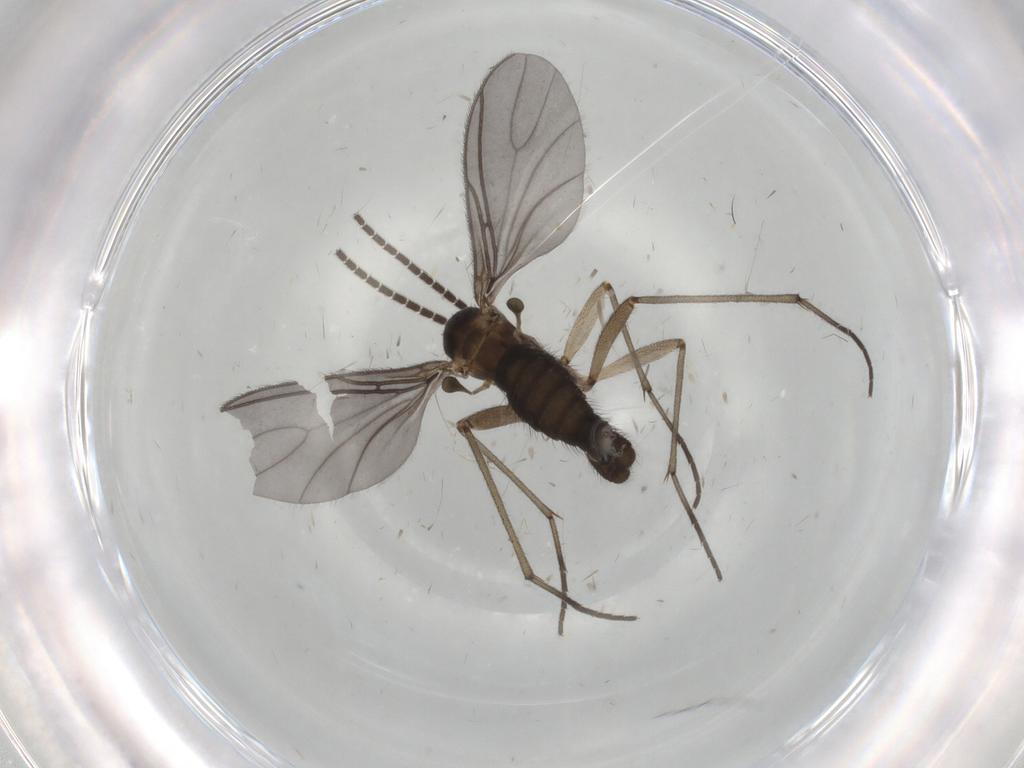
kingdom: Animalia
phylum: Arthropoda
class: Insecta
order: Diptera
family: Sciaridae
